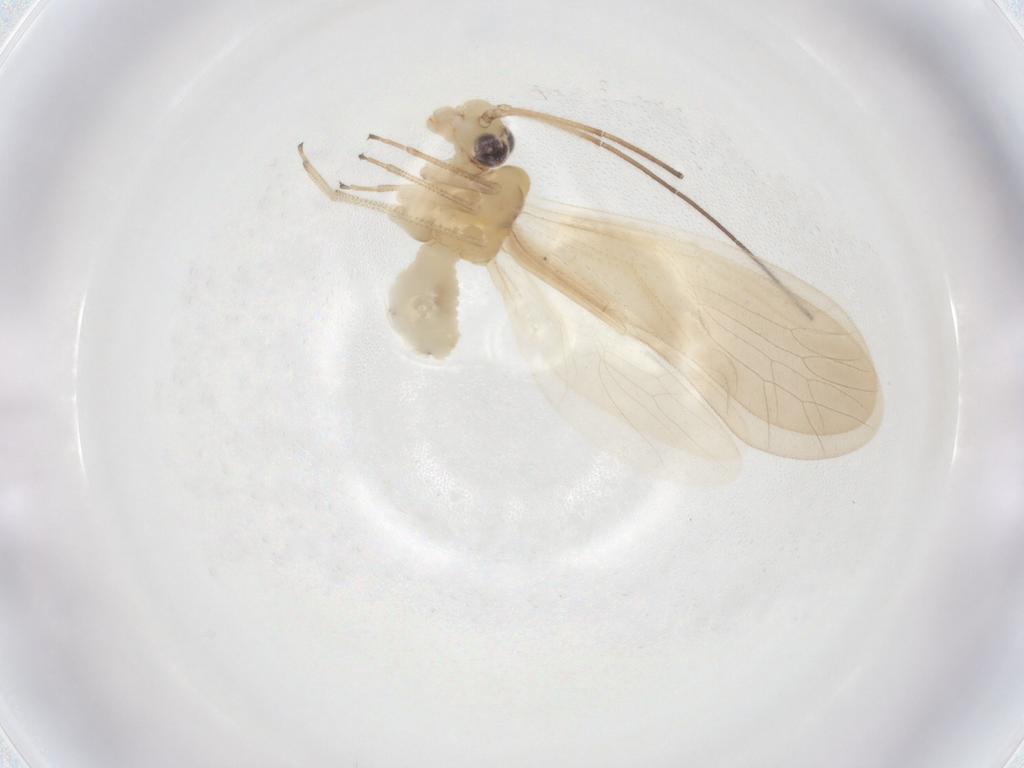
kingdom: Animalia
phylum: Arthropoda
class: Insecta
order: Psocodea
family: Caeciliusidae
